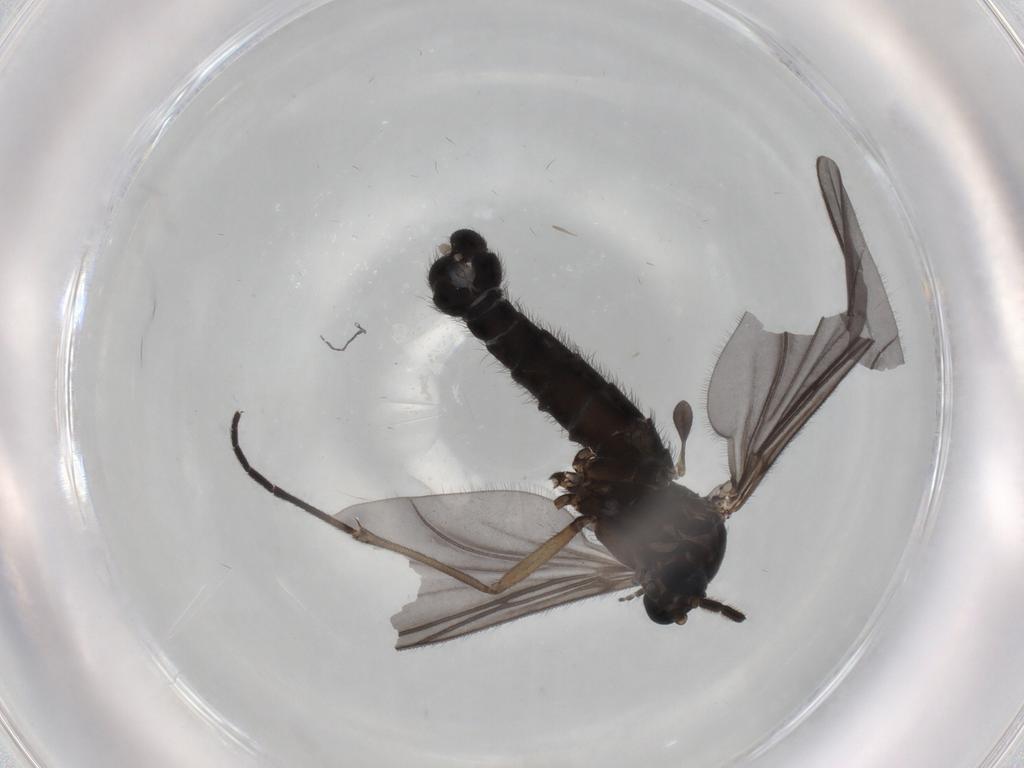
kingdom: Animalia
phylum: Arthropoda
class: Insecta
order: Diptera
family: Sciaridae
